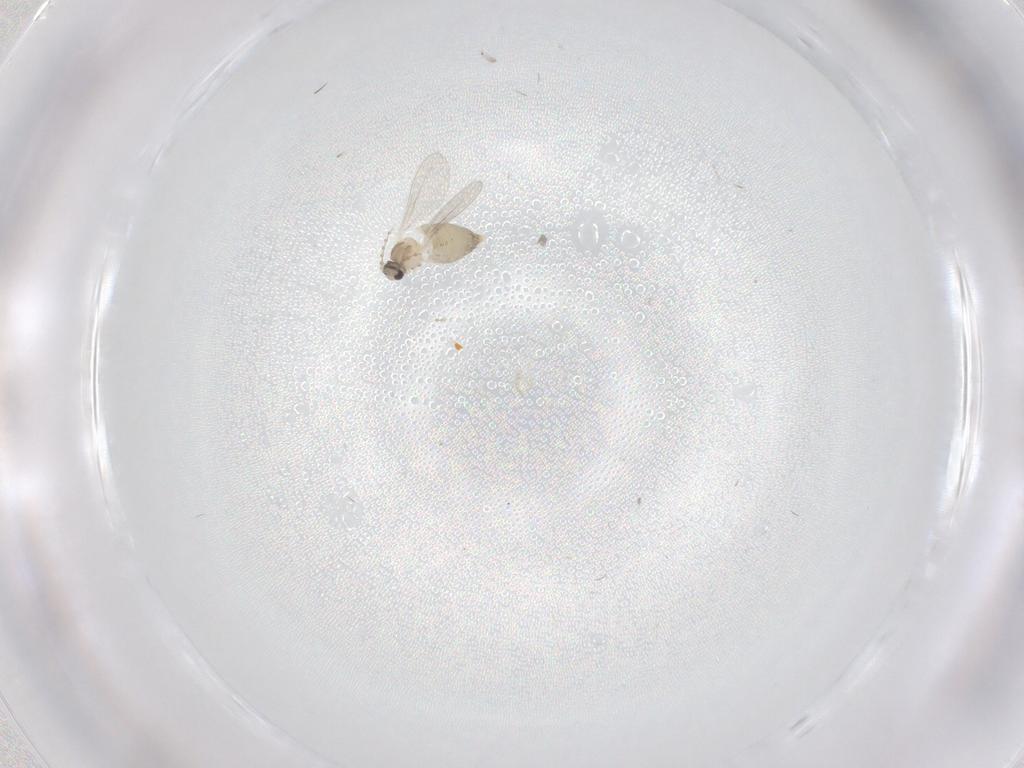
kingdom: Animalia
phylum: Arthropoda
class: Insecta
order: Diptera
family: Cecidomyiidae
